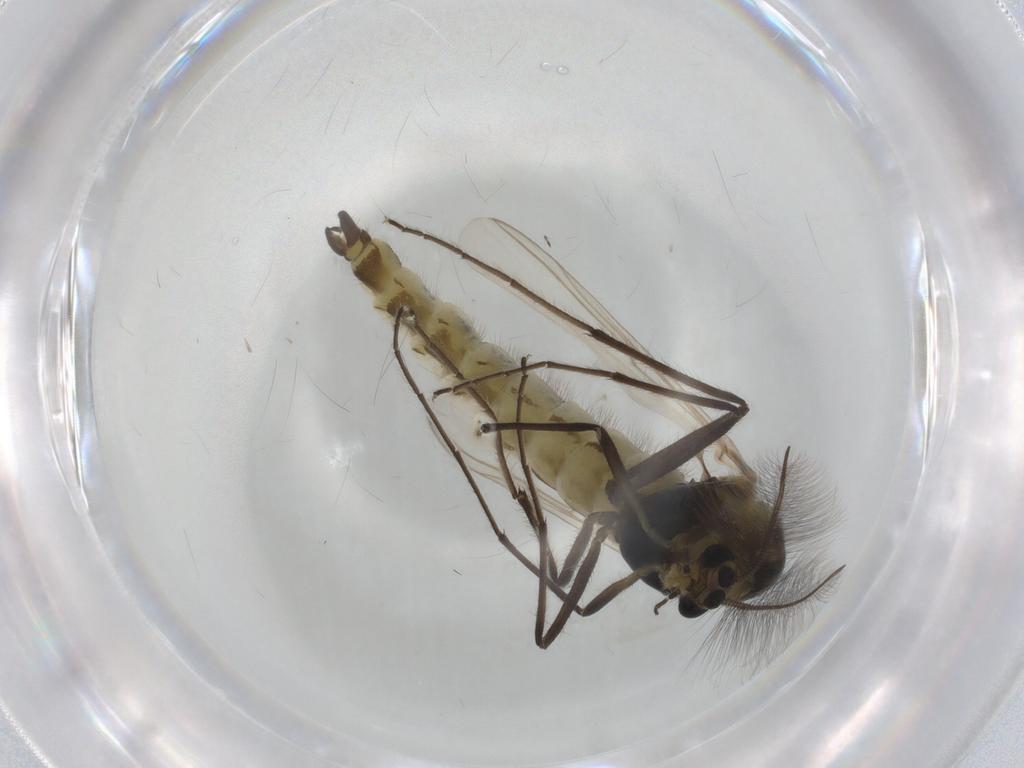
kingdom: Animalia
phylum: Arthropoda
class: Insecta
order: Diptera
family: Chironomidae
